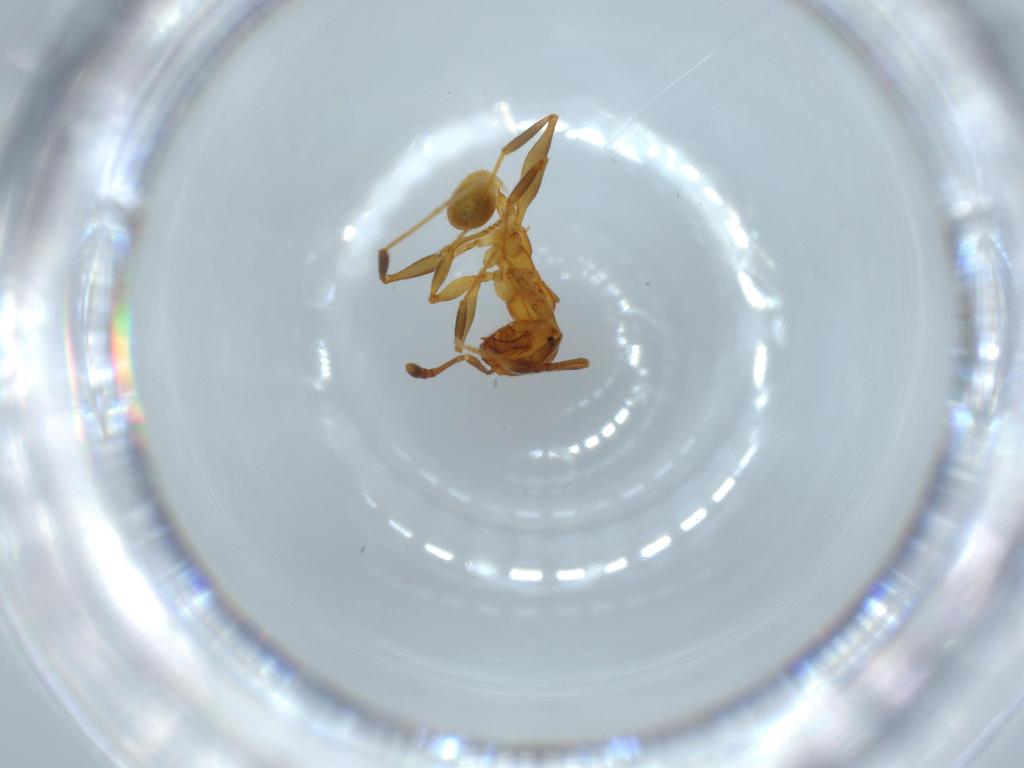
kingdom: Animalia
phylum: Arthropoda
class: Insecta
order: Hymenoptera
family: Formicidae
